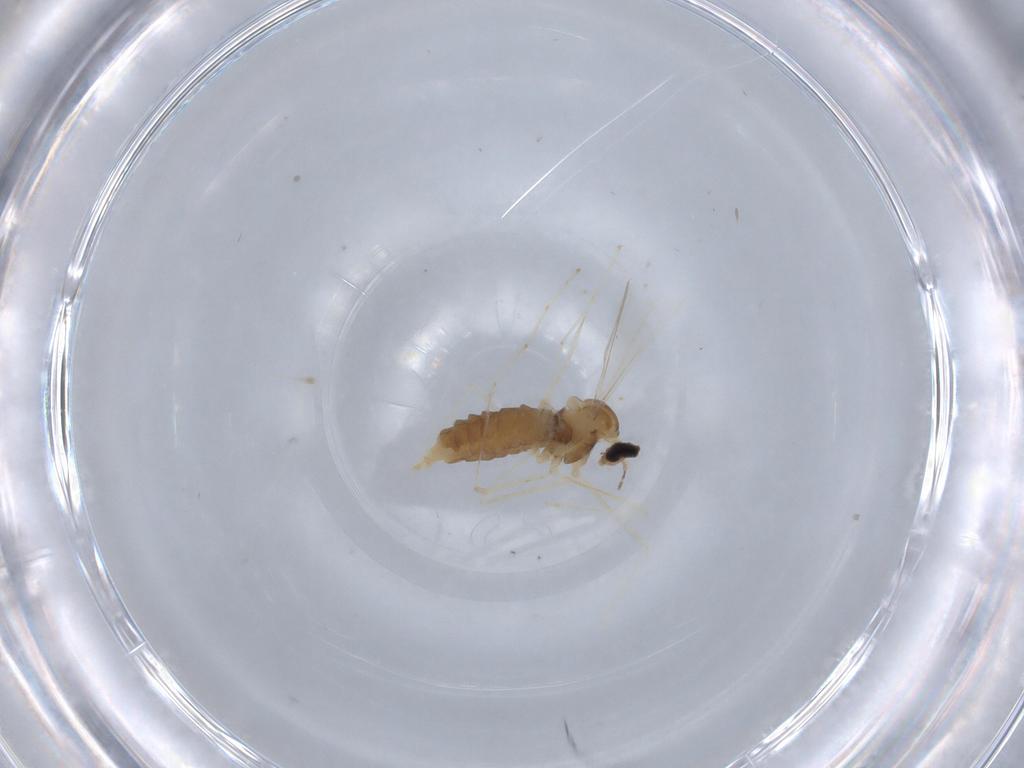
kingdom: Animalia
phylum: Arthropoda
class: Insecta
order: Diptera
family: Cecidomyiidae
